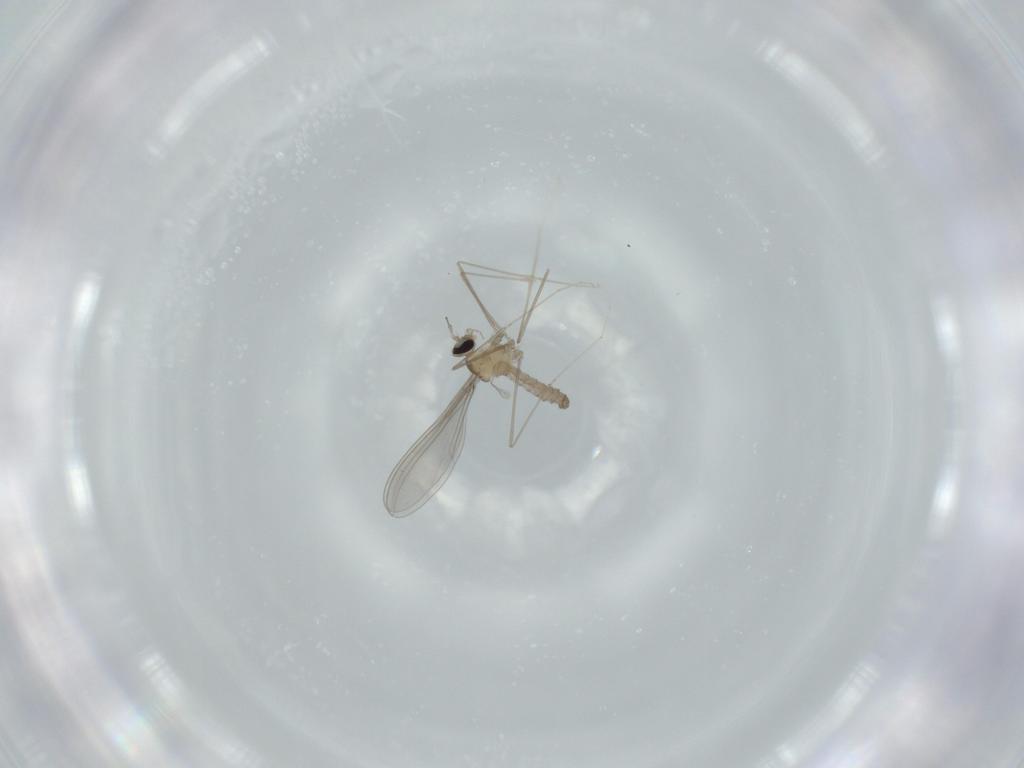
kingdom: Animalia
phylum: Arthropoda
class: Insecta
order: Diptera
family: Cecidomyiidae
